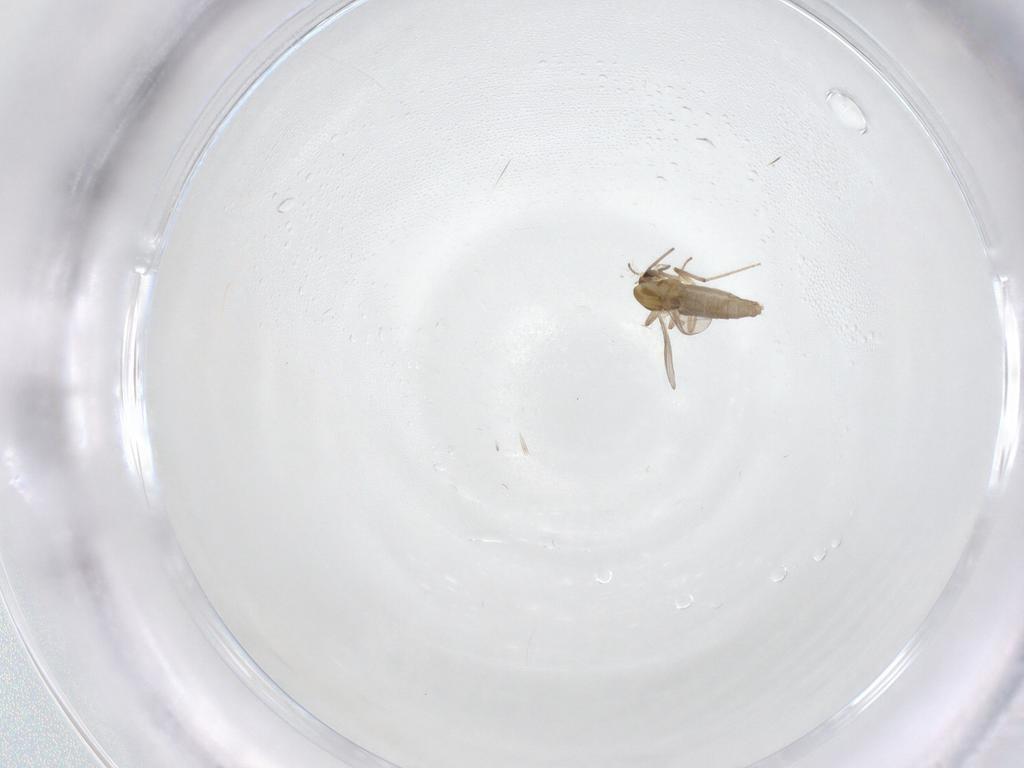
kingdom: Animalia
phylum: Arthropoda
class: Insecta
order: Diptera
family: Chironomidae
